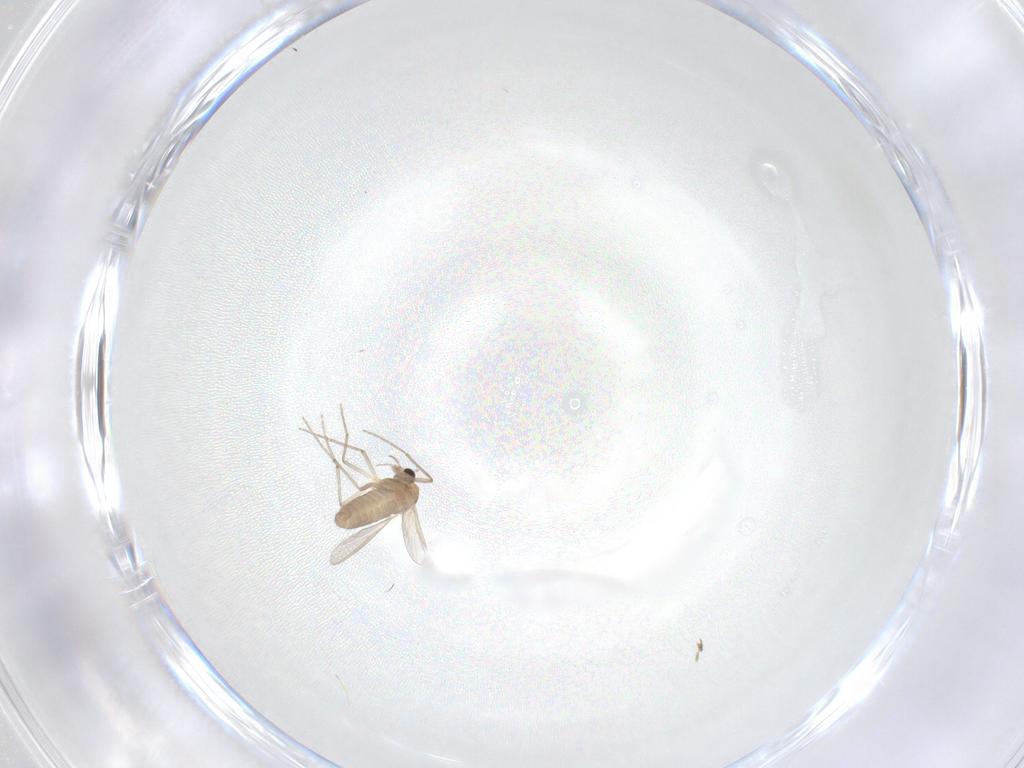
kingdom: Animalia
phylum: Arthropoda
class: Insecta
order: Diptera
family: Chironomidae
